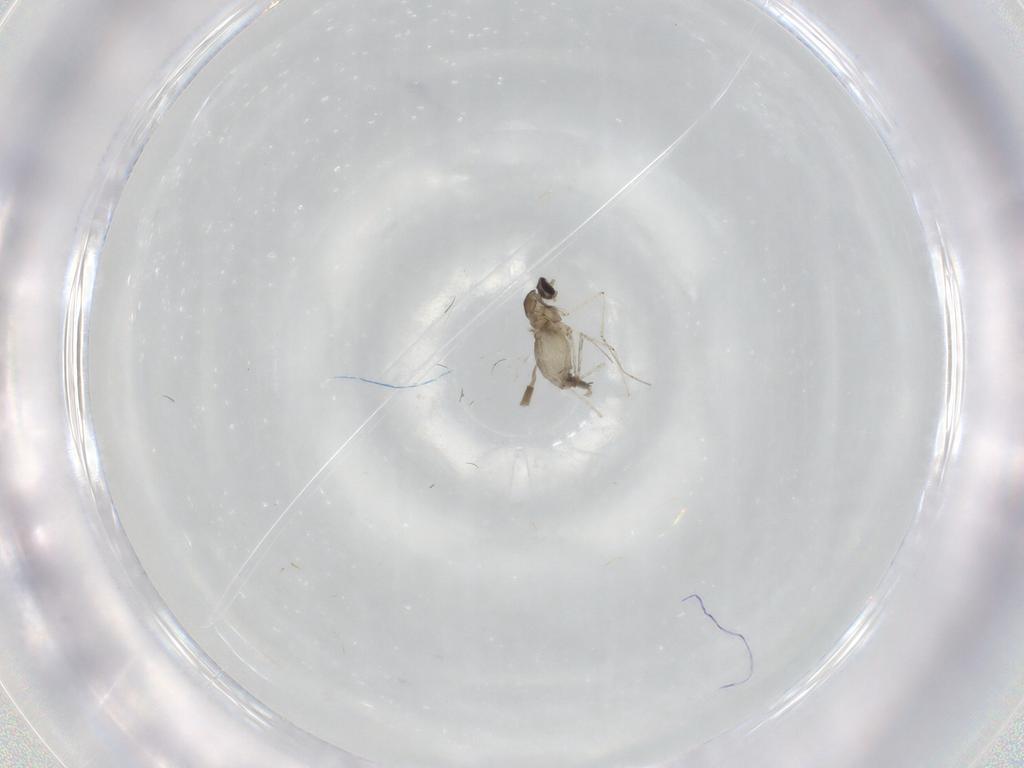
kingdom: Animalia
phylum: Arthropoda
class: Insecta
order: Diptera
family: Cecidomyiidae
